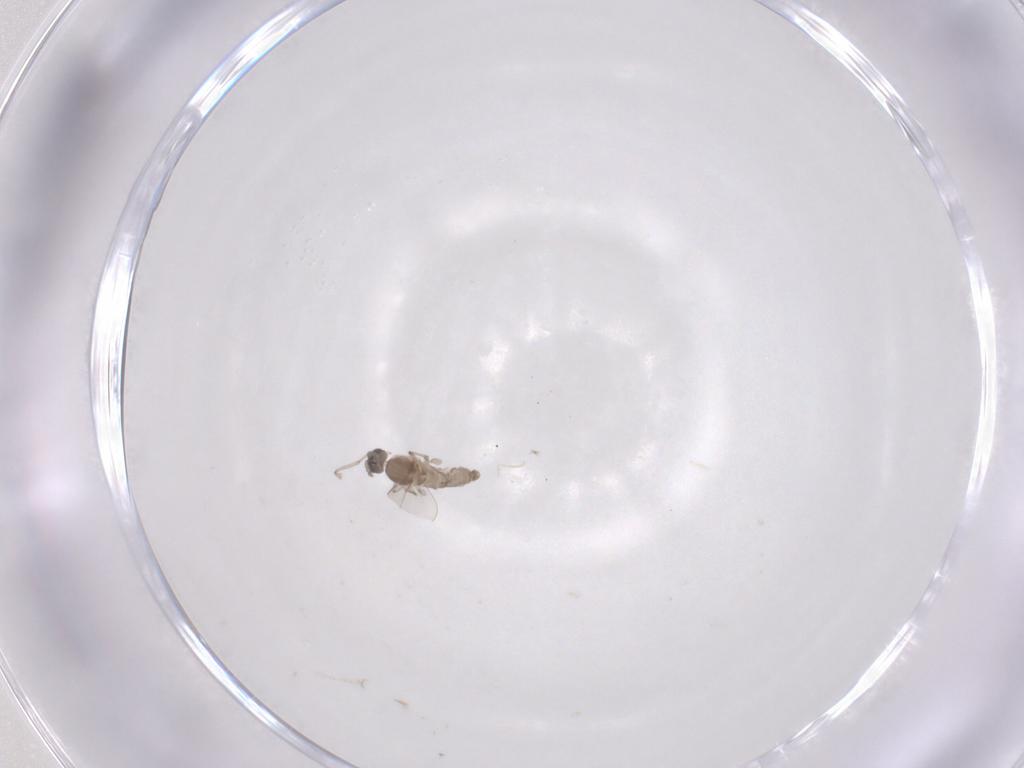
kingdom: Animalia
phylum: Arthropoda
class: Insecta
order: Diptera
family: Cecidomyiidae
